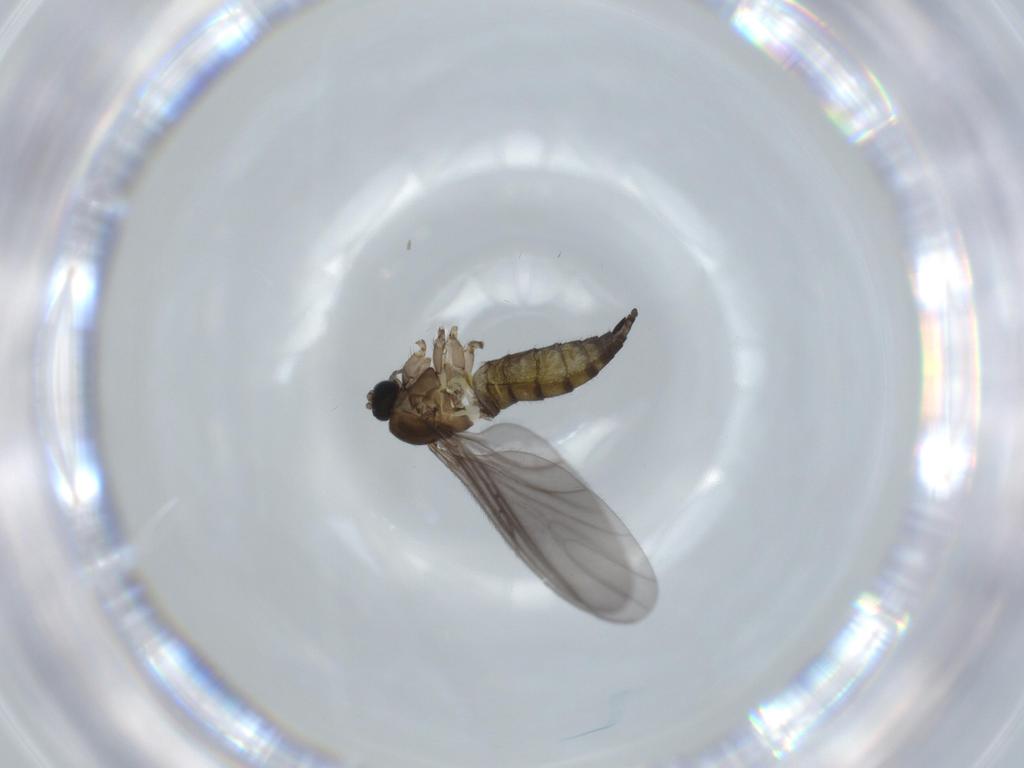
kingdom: Animalia
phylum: Arthropoda
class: Insecta
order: Diptera
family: Sciaridae
